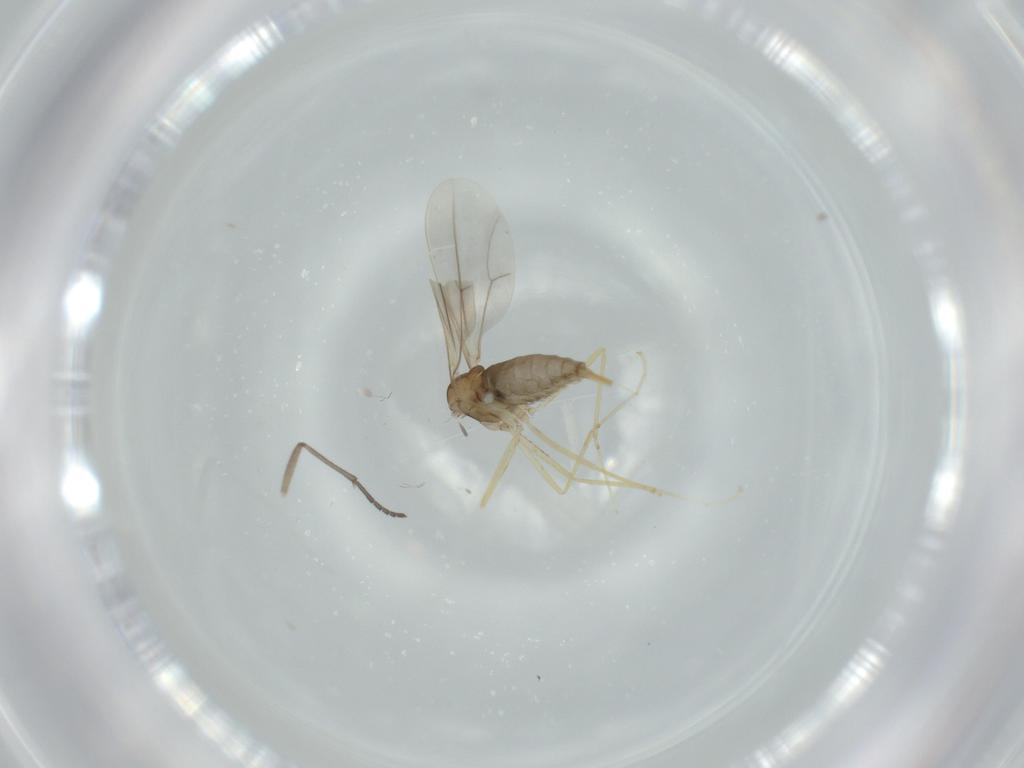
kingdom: Animalia
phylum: Arthropoda
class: Insecta
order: Diptera
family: Cecidomyiidae
